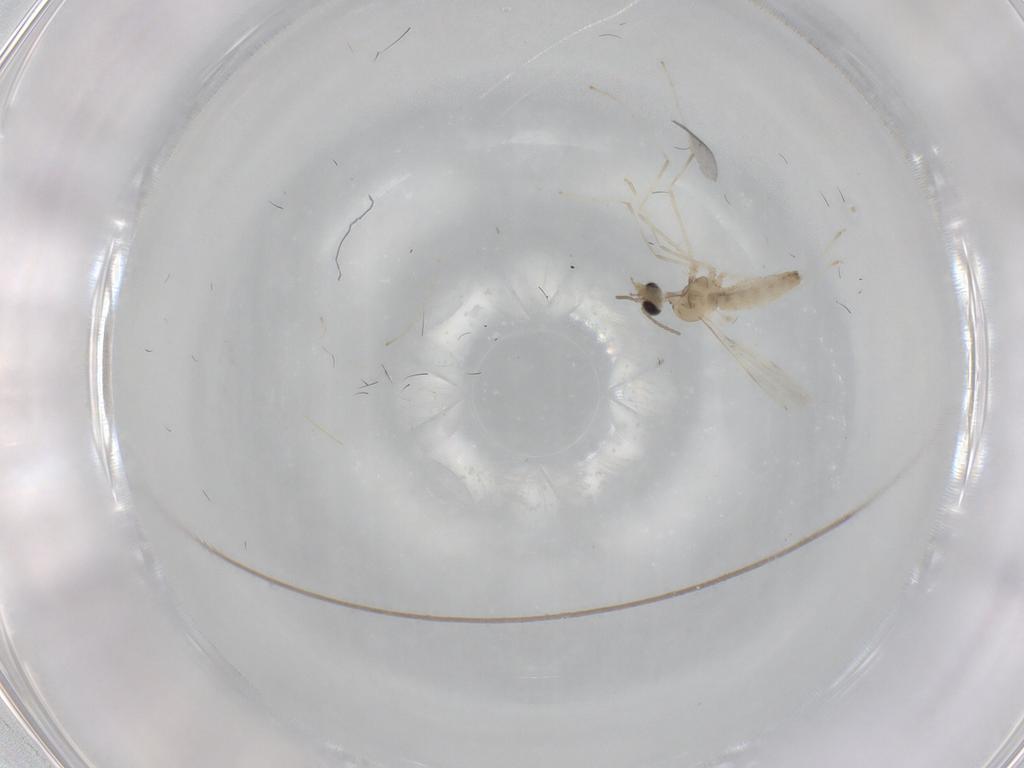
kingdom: Animalia
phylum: Arthropoda
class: Insecta
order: Diptera
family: Cecidomyiidae
